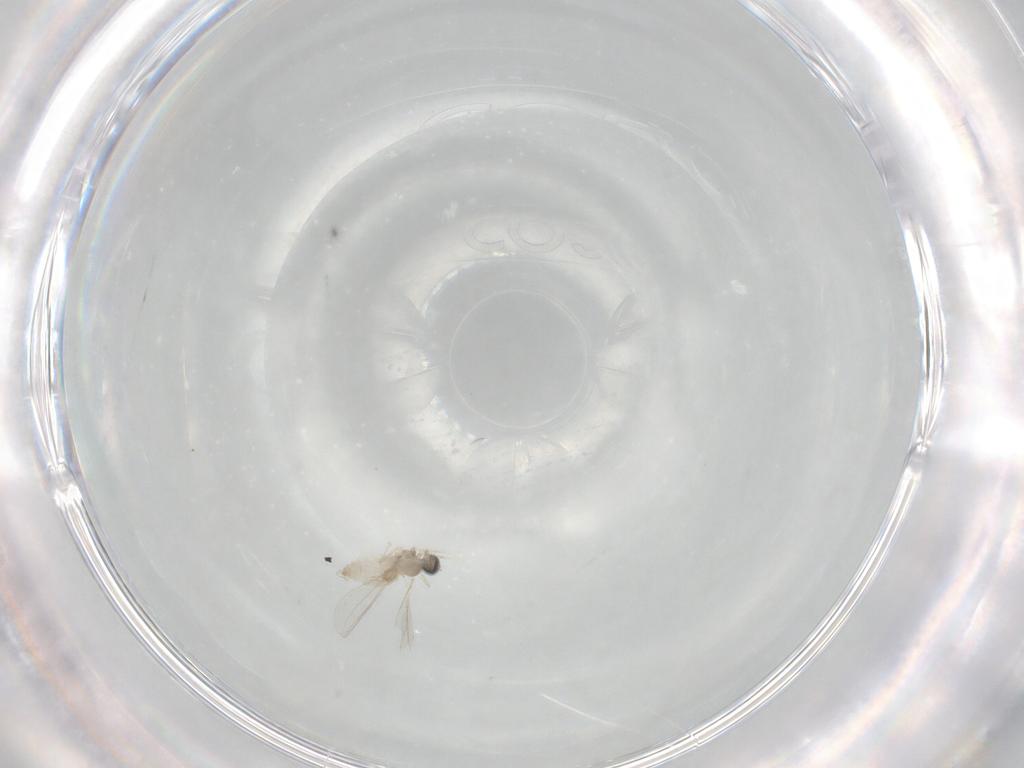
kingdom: Animalia
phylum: Arthropoda
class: Insecta
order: Diptera
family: Cecidomyiidae
